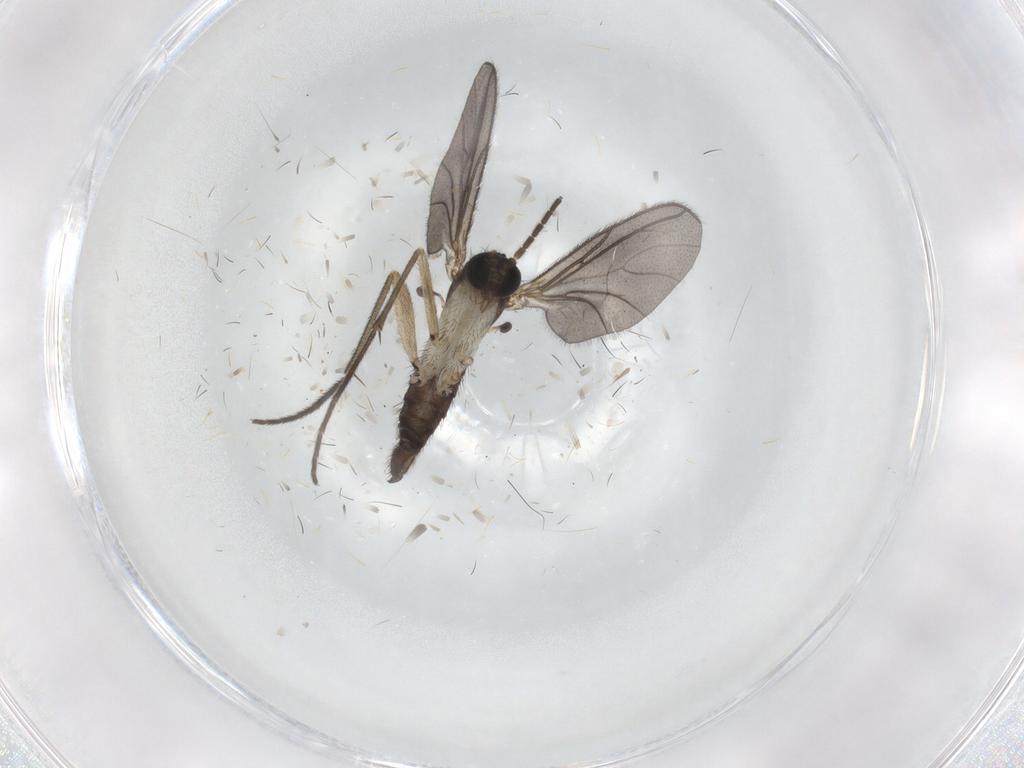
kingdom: Animalia
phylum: Arthropoda
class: Insecta
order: Diptera
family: Sciaridae
